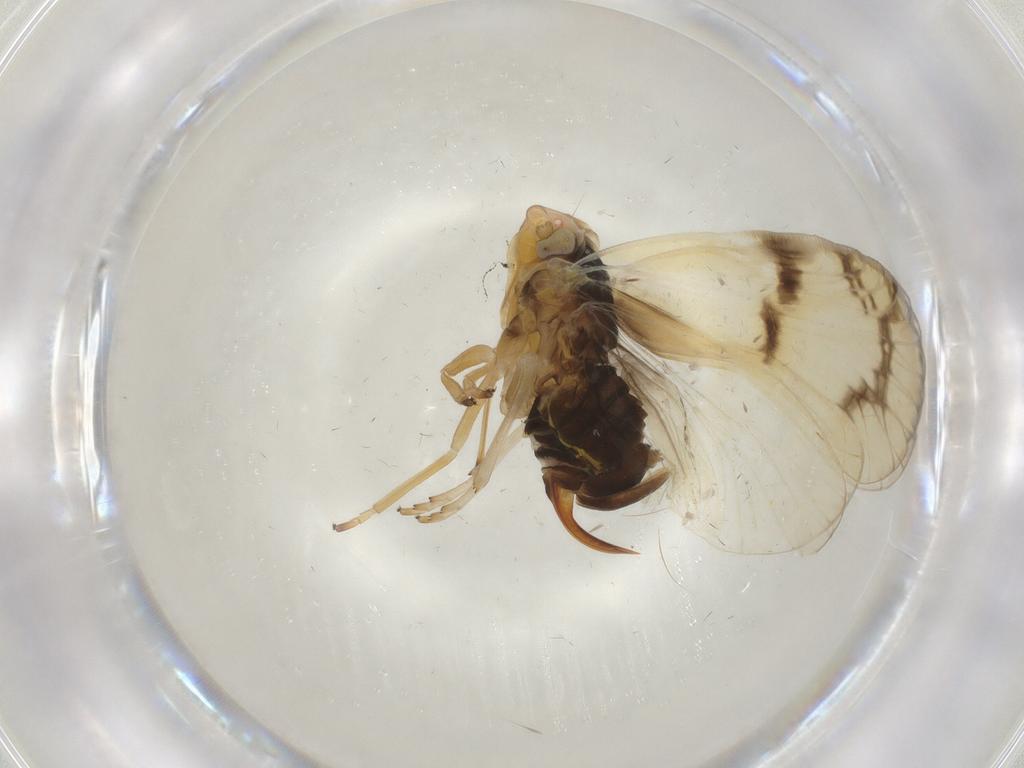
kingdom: Animalia
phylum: Arthropoda
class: Insecta
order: Hemiptera
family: Cixiidae
